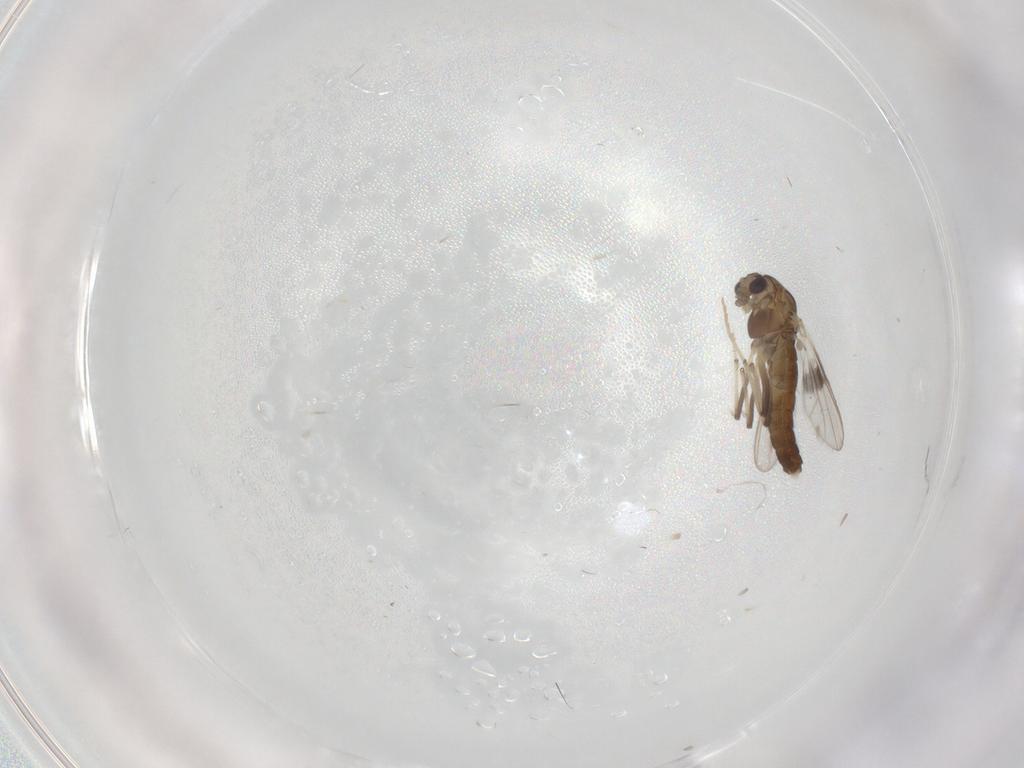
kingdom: Animalia
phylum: Arthropoda
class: Insecta
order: Diptera
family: Chironomidae
